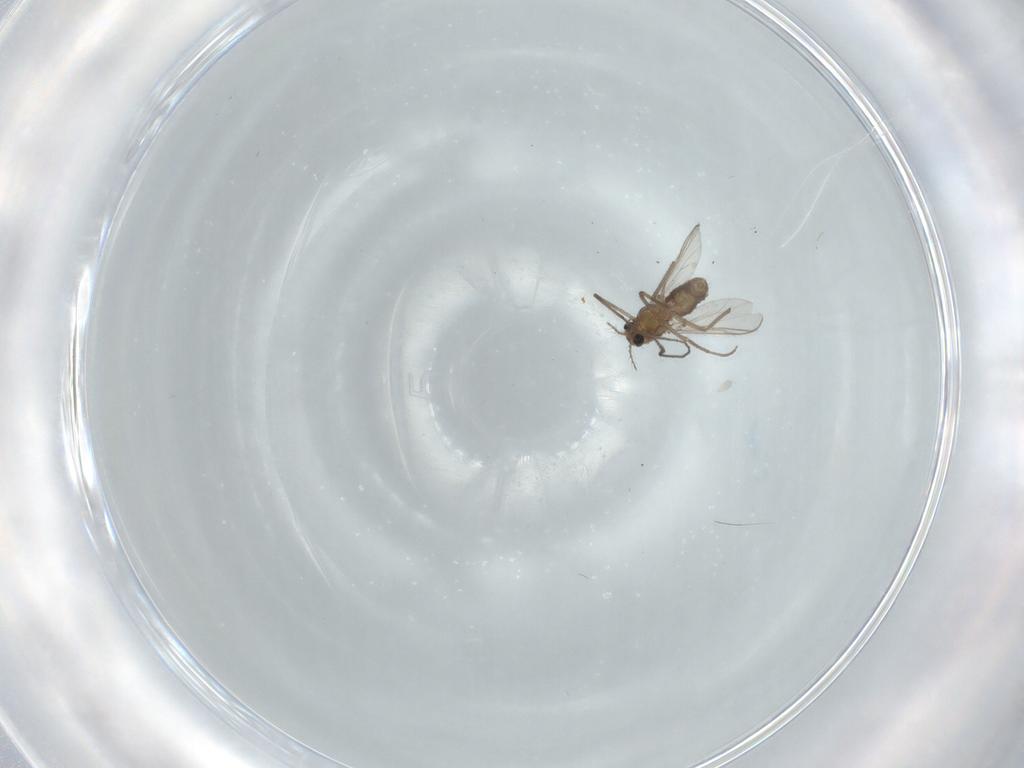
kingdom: Animalia
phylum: Arthropoda
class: Insecta
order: Diptera
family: Chironomidae
